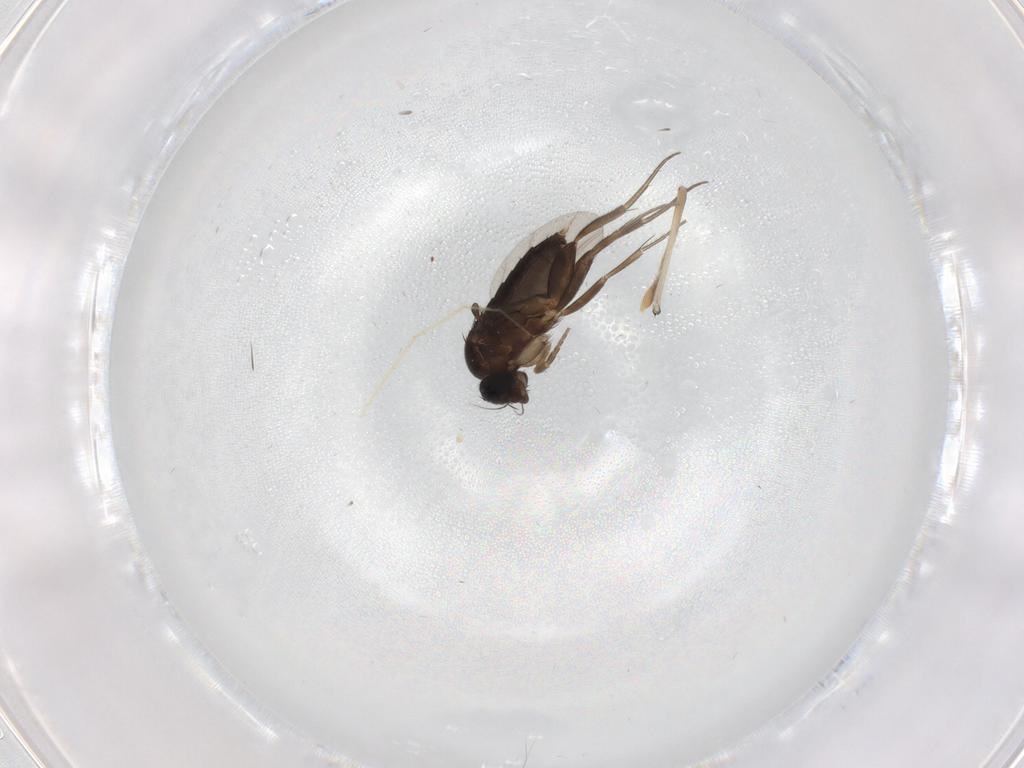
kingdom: Animalia
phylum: Arthropoda
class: Insecta
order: Diptera
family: Phoridae
